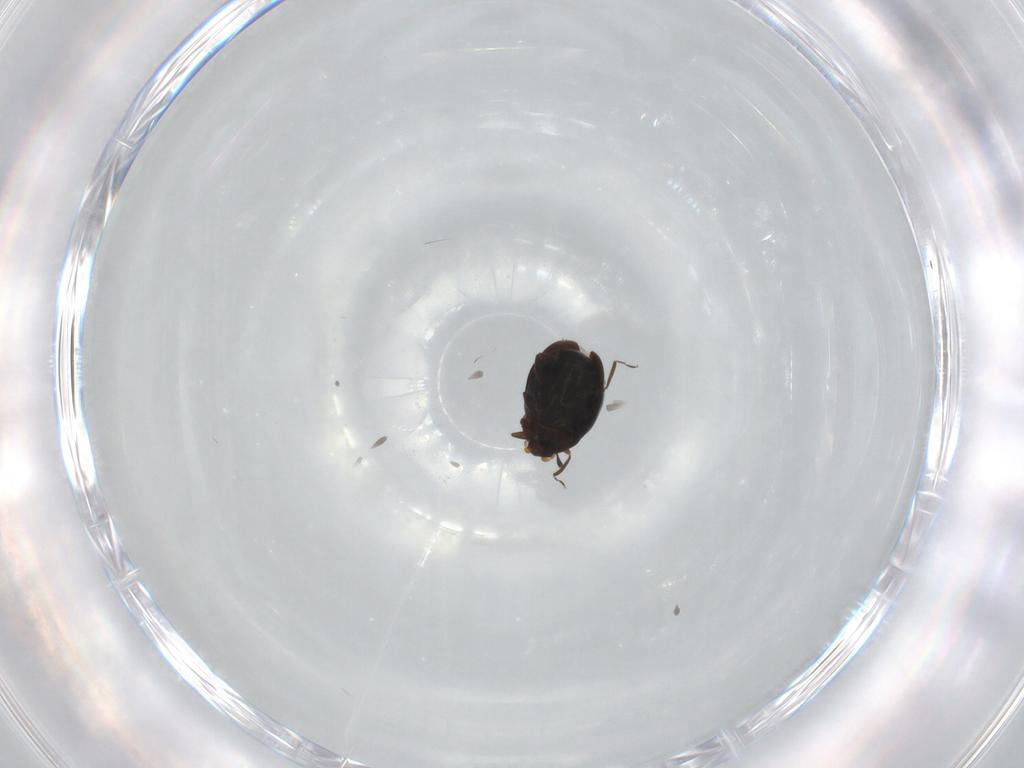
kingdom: Animalia
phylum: Arthropoda
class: Insecta
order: Coleoptera
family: Corylophidae
